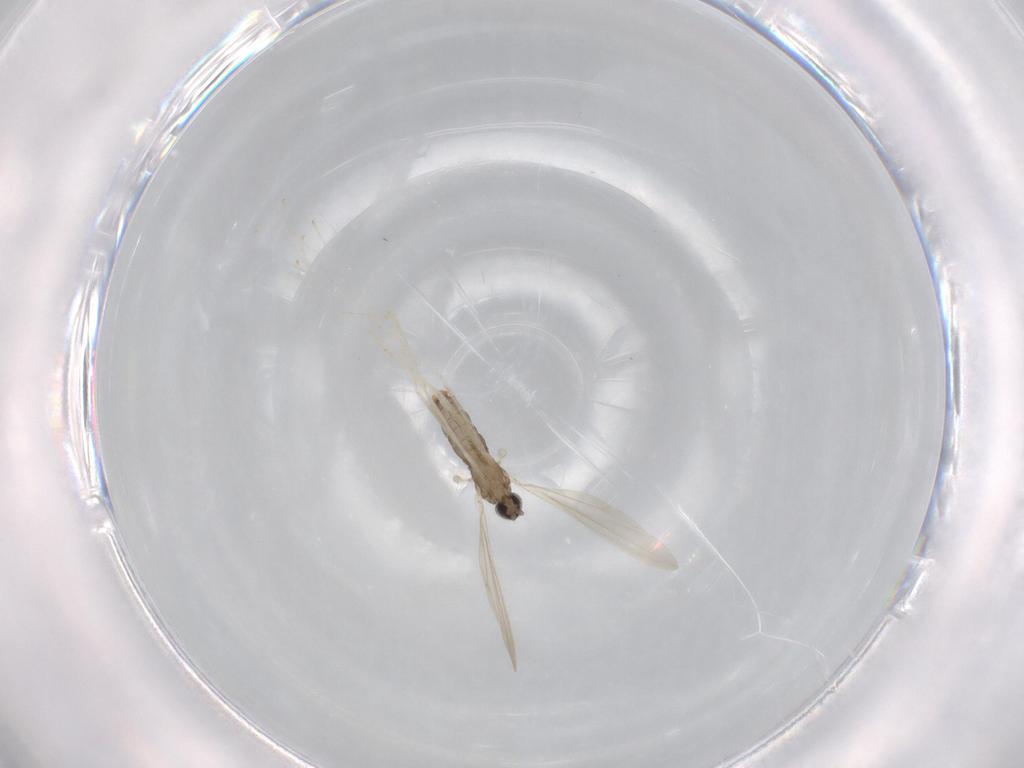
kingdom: Animalia
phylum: Arthropoda
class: Insecta
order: Diptera
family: Cecidomyiidae
